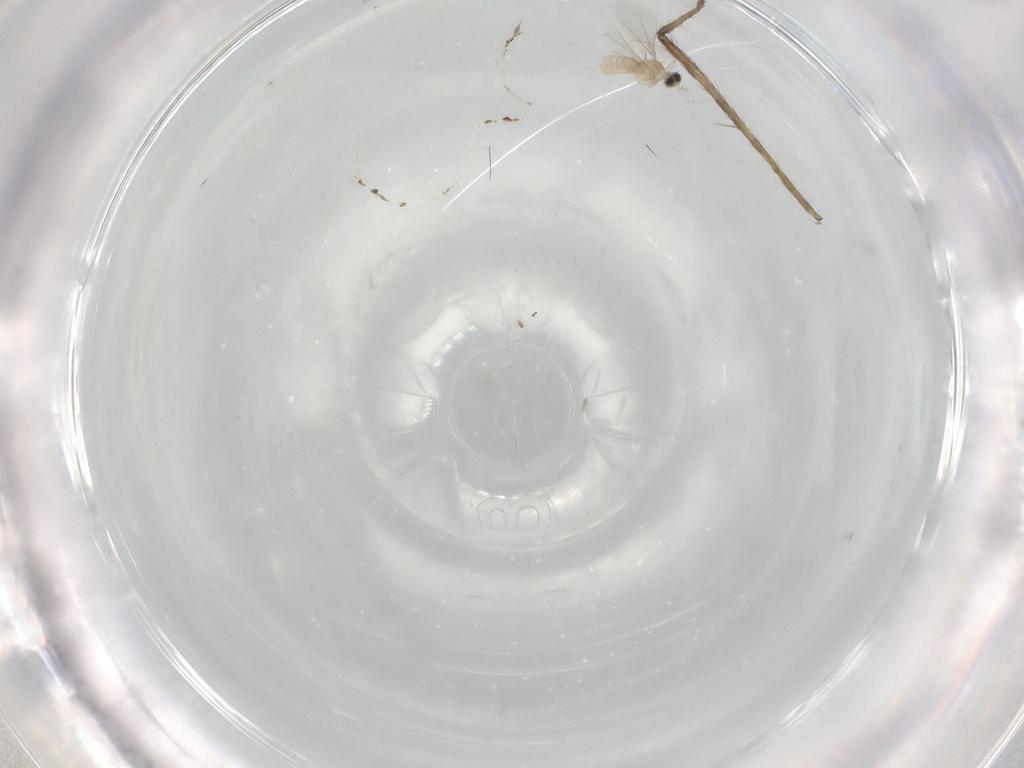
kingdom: Animalia
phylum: Arthropoda
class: Insecta
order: Diptera
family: Limoniidae
